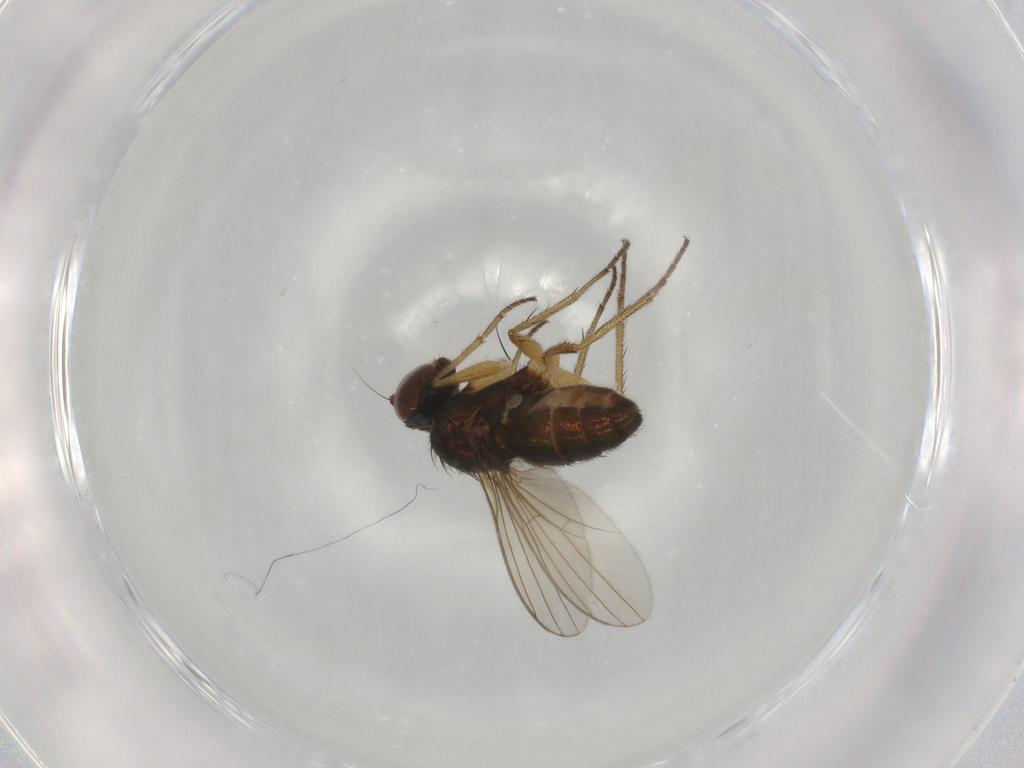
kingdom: Animalia
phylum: Arthropoda
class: Insecta
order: Diptera
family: Dolichopodidae
